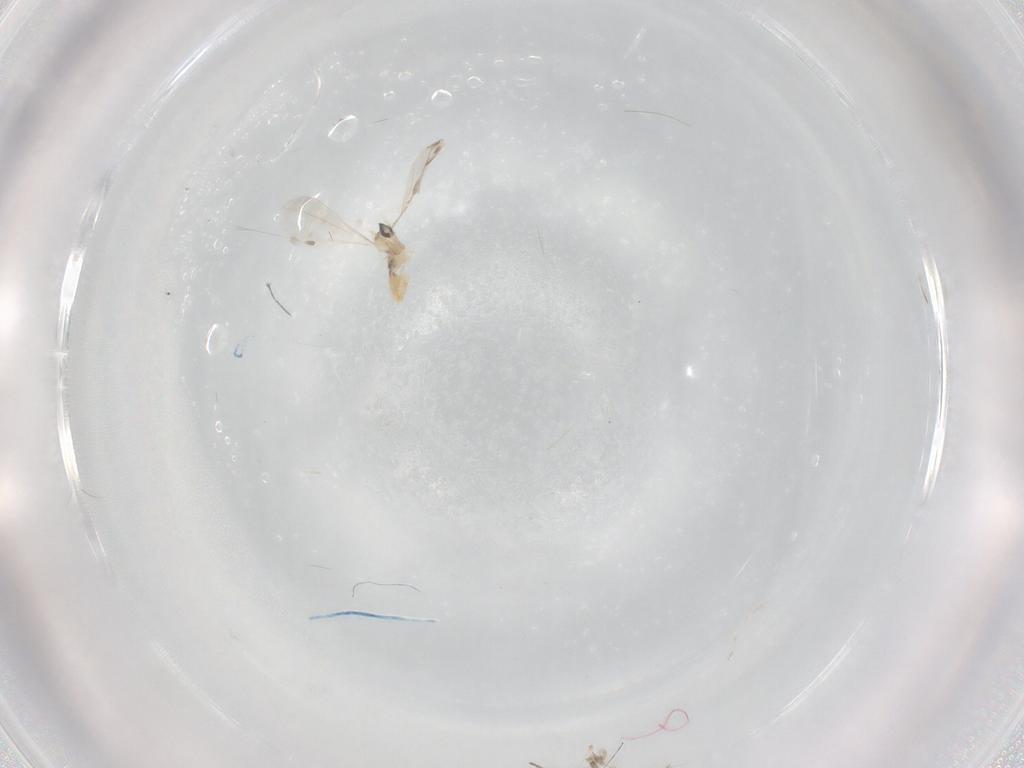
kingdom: Animalia
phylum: Arthropoda
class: Insecta
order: Diptera
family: Cecidomyiidae
